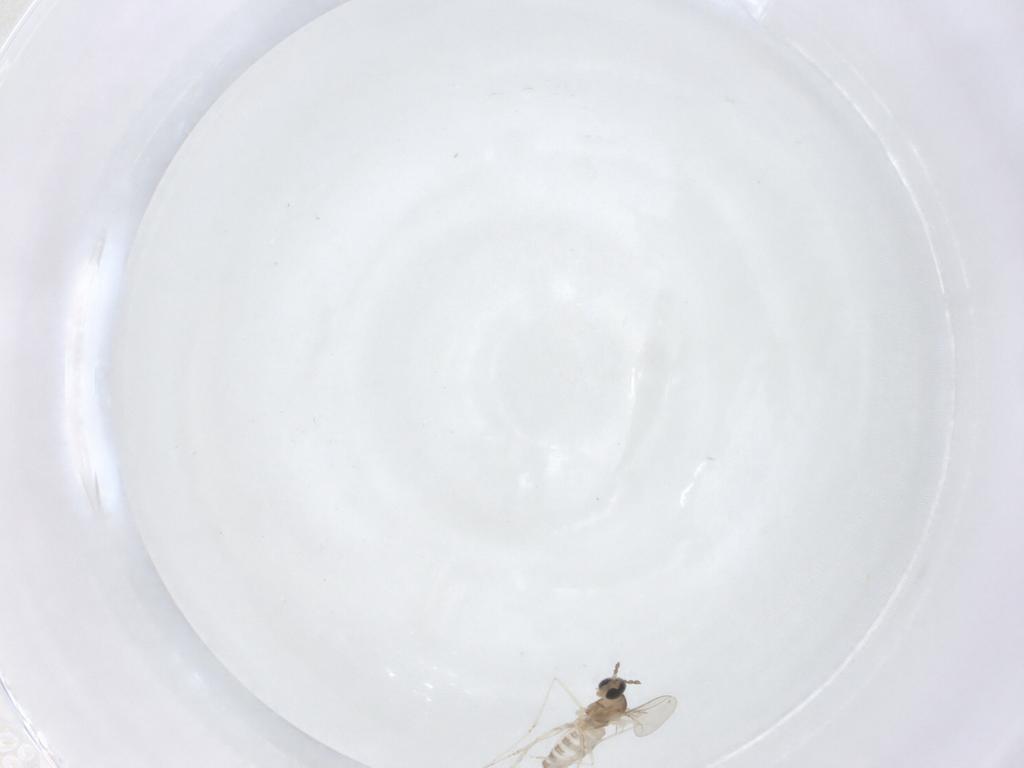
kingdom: Animalia
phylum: Arthropoda
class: Insecta
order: Diptera
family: Cecidomyiidae
